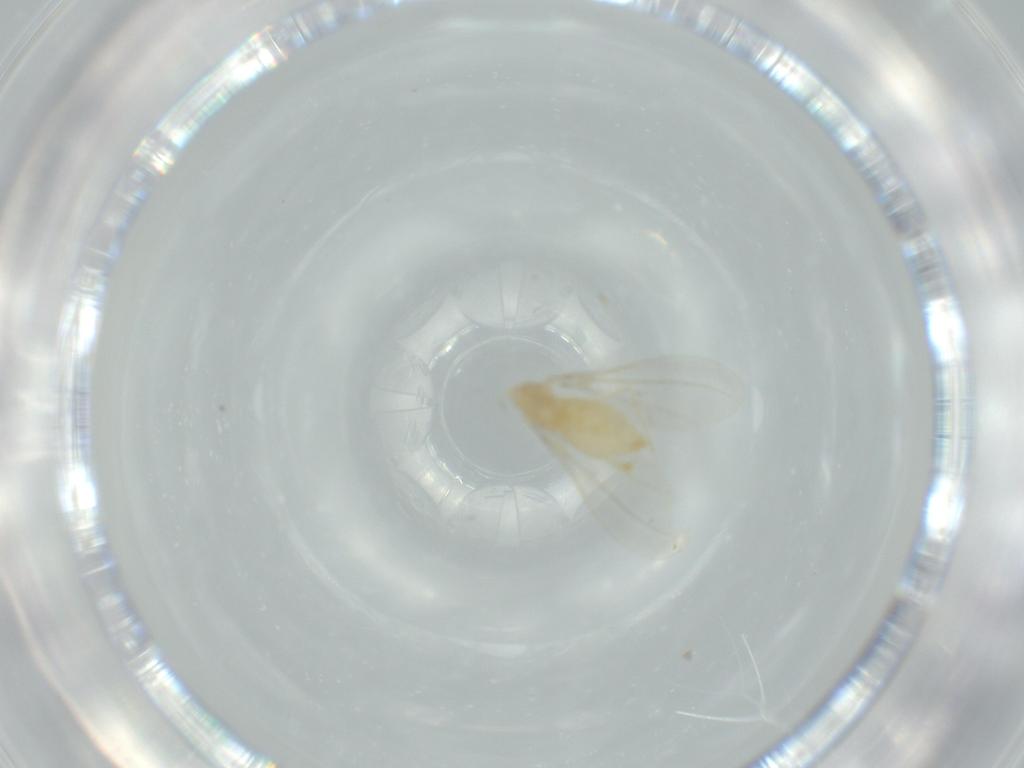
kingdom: Animalia
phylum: Arthropoda
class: Insecta
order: Diptera
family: Cecidomyiidae
